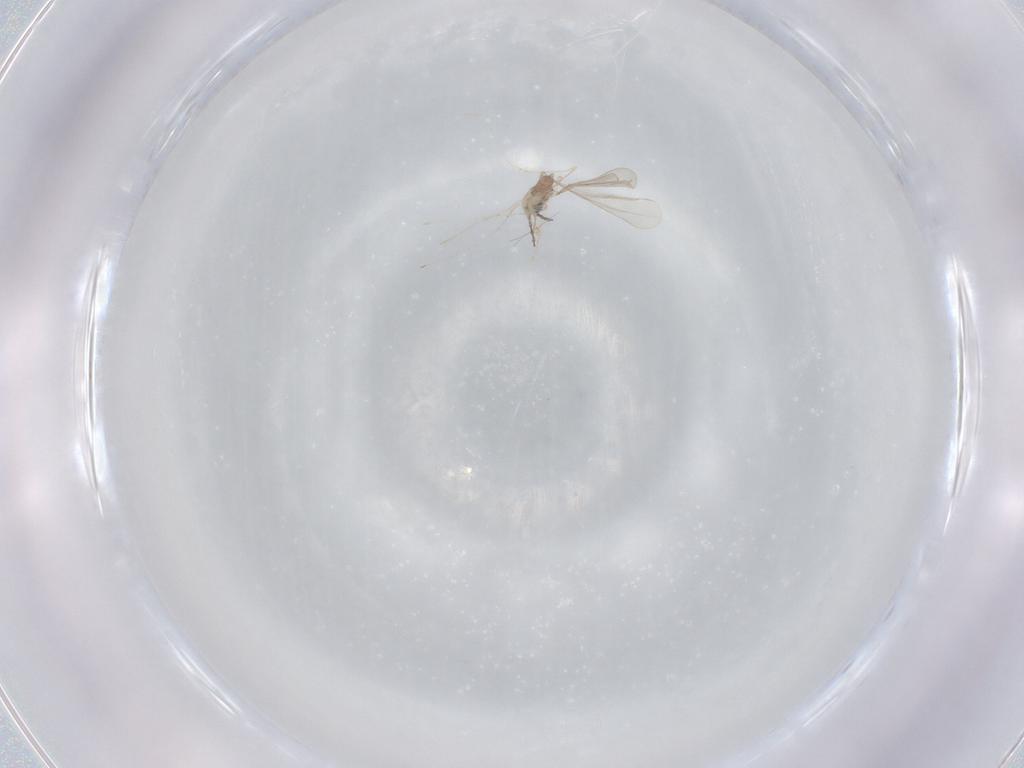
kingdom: Animalia
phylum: Arthropoda
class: Insecta
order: Diptera
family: Cecidomyiidae
